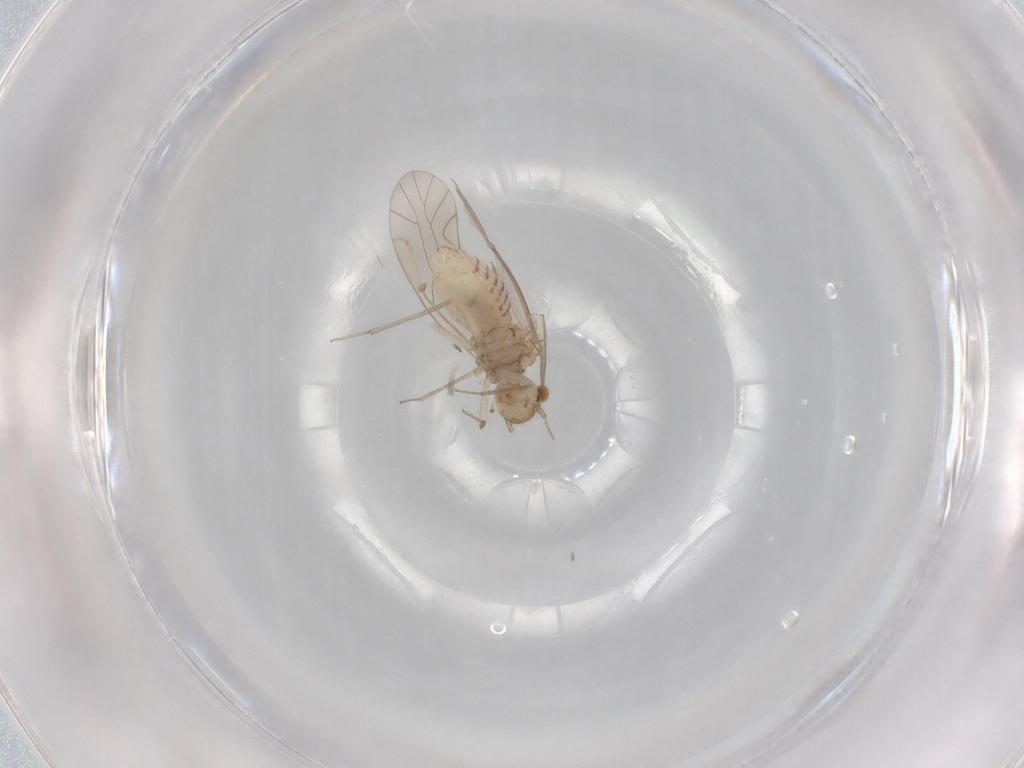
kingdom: Animalia
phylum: Arthropoda
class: Insecta
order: Psocodea
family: Lachesillidae
